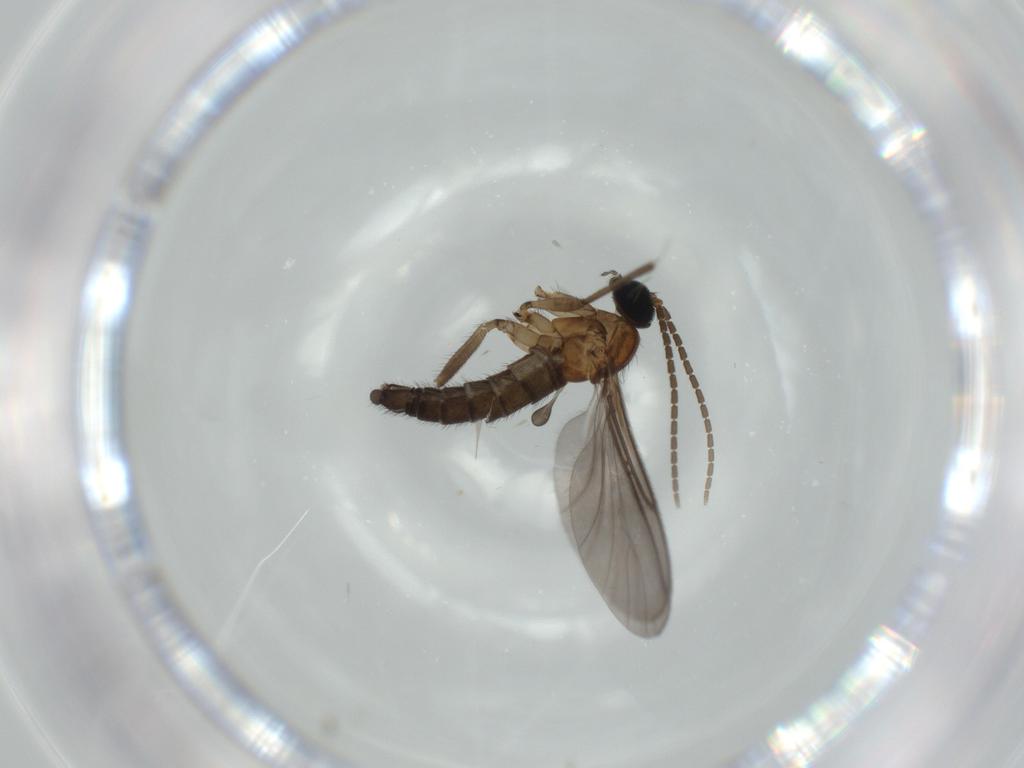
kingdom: Animalia
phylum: Arthropoda
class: Insecta
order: Diptera
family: Sciaridae
